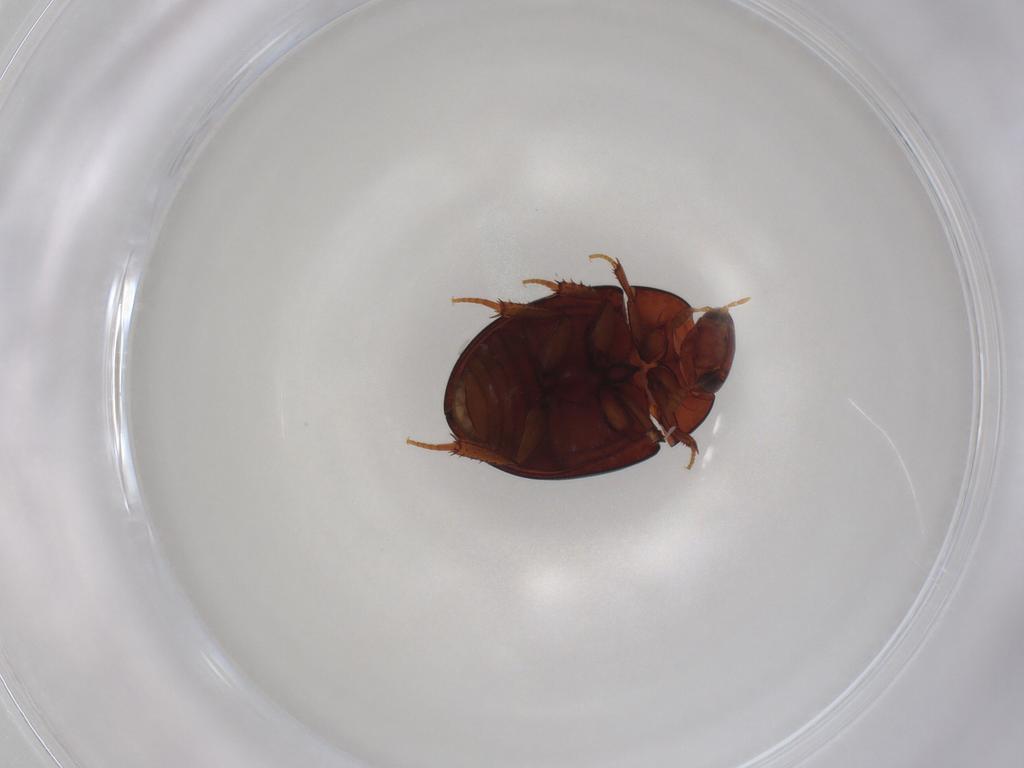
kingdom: Animalia
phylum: Arthropoda
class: Insecta
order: Coleoptera
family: Hydrophilidae
